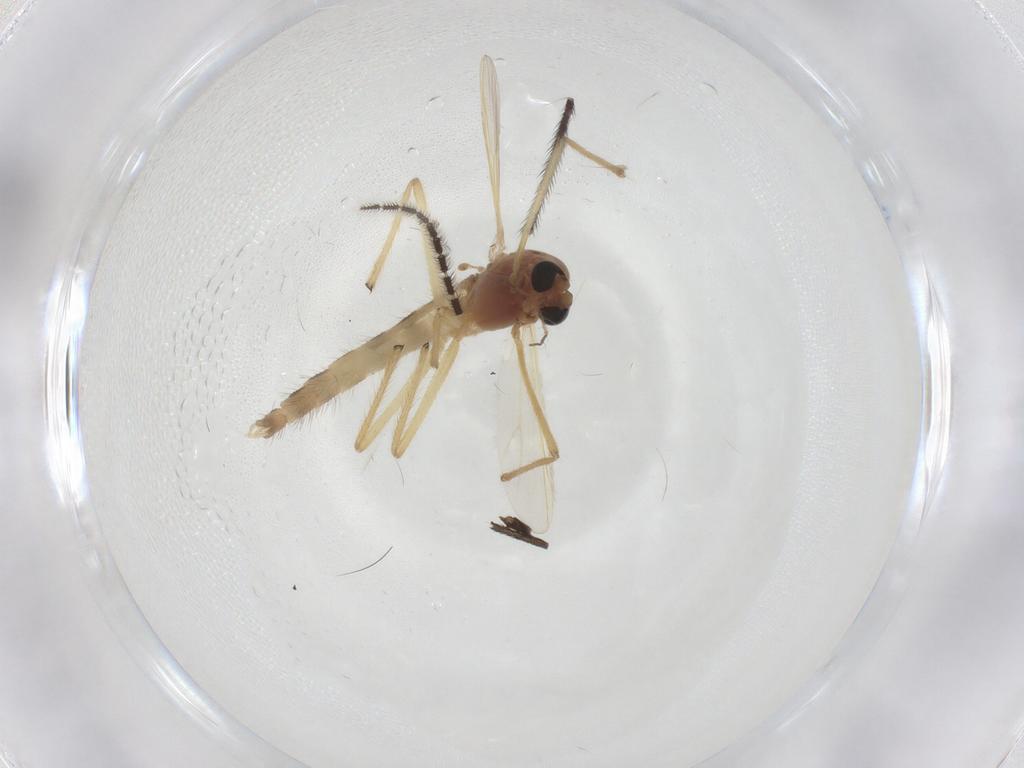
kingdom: Animalia
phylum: Arthropoda
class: Insecta
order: Diptera
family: Chironomidae
